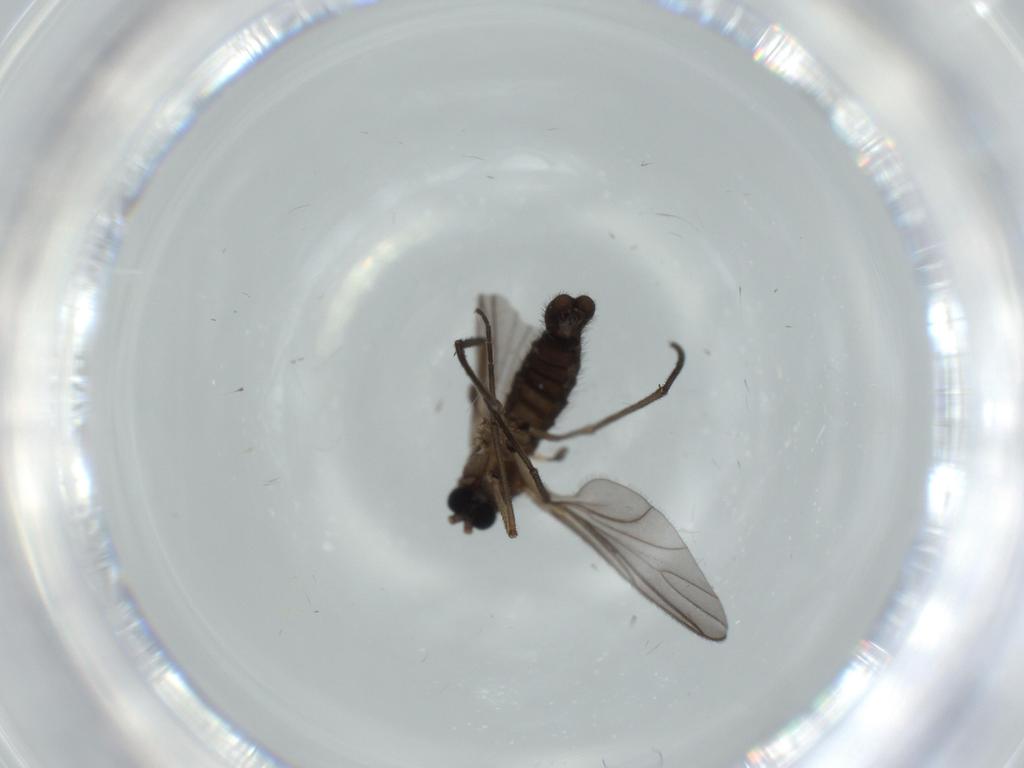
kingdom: Animalia
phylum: Arthropoda
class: Insecta
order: Diptera
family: Sciaridae
